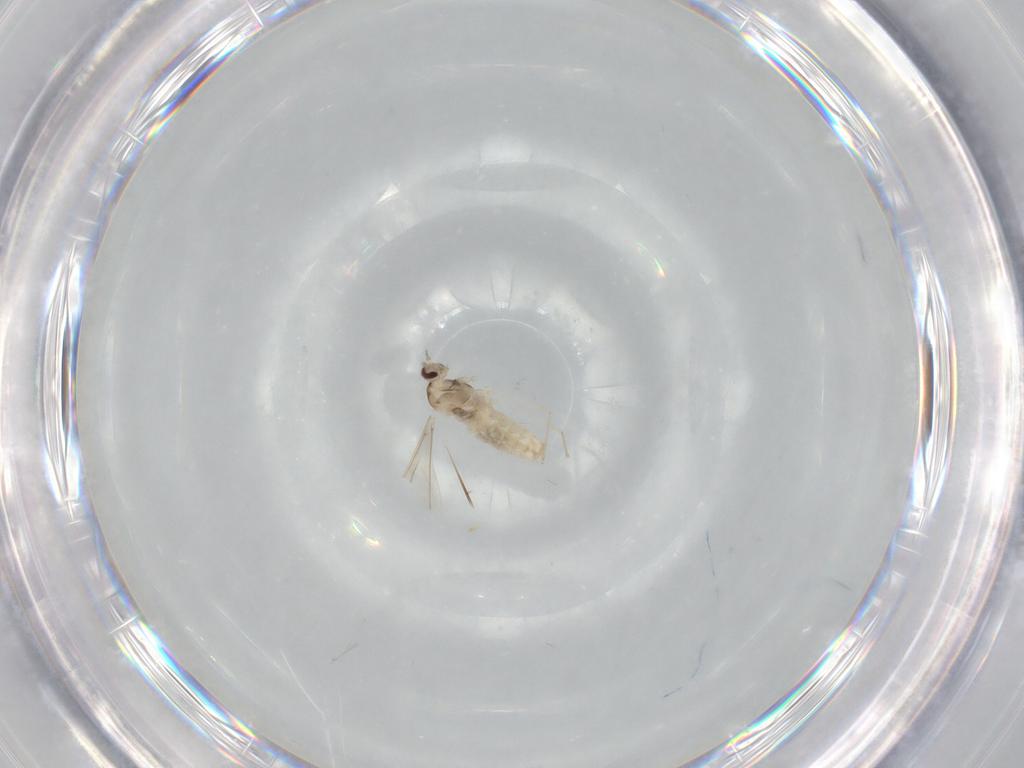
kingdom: Animalia
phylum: Arthropoda
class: Insecta
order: Diptera
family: Cecidomyiidae
